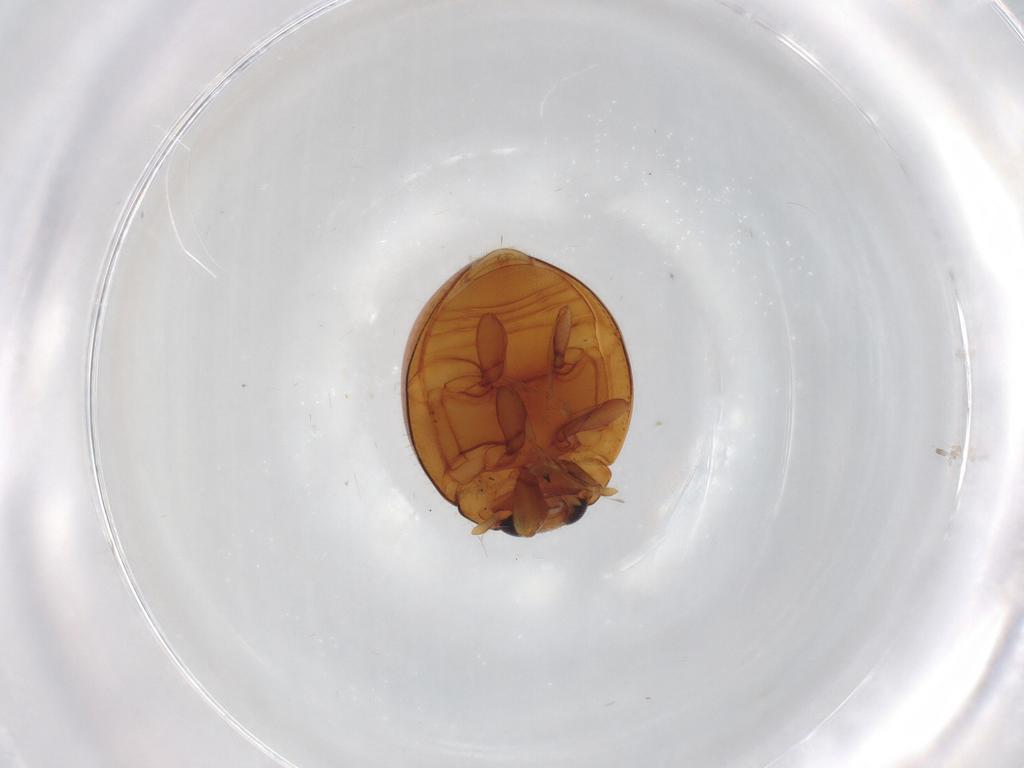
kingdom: Animalia
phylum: Arthropoda
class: Insecta
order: Coleoptera
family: Coccinellidae
